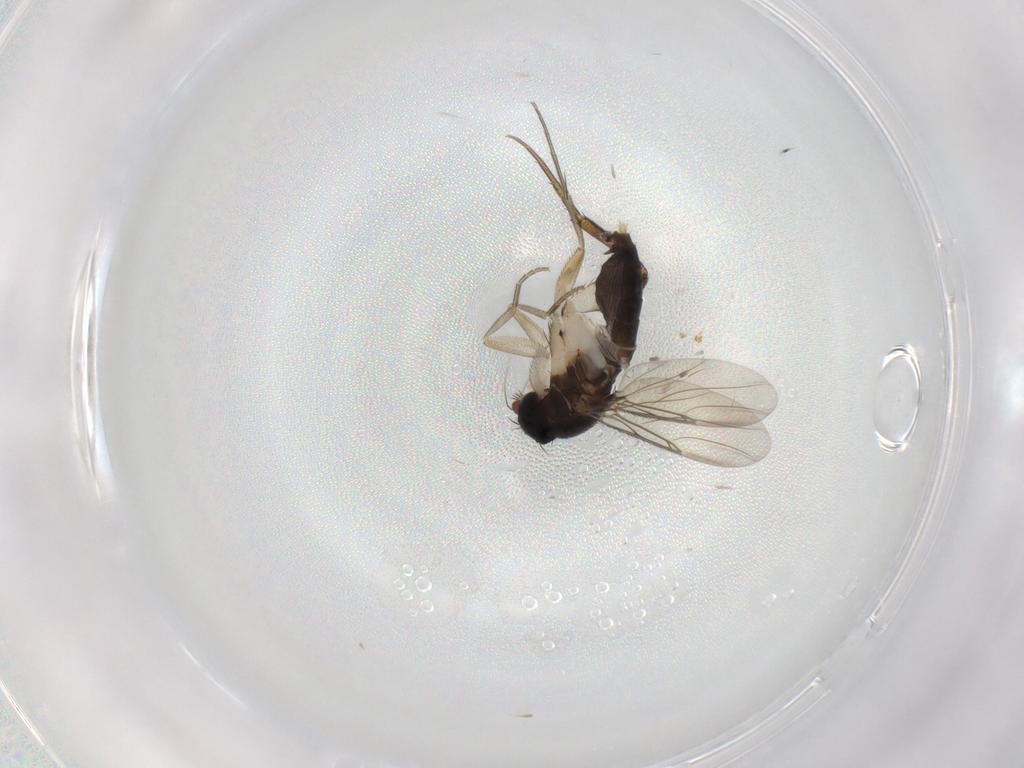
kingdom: Animalia
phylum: Arthropoda
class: Insecta
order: Diptera
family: Phoridae
